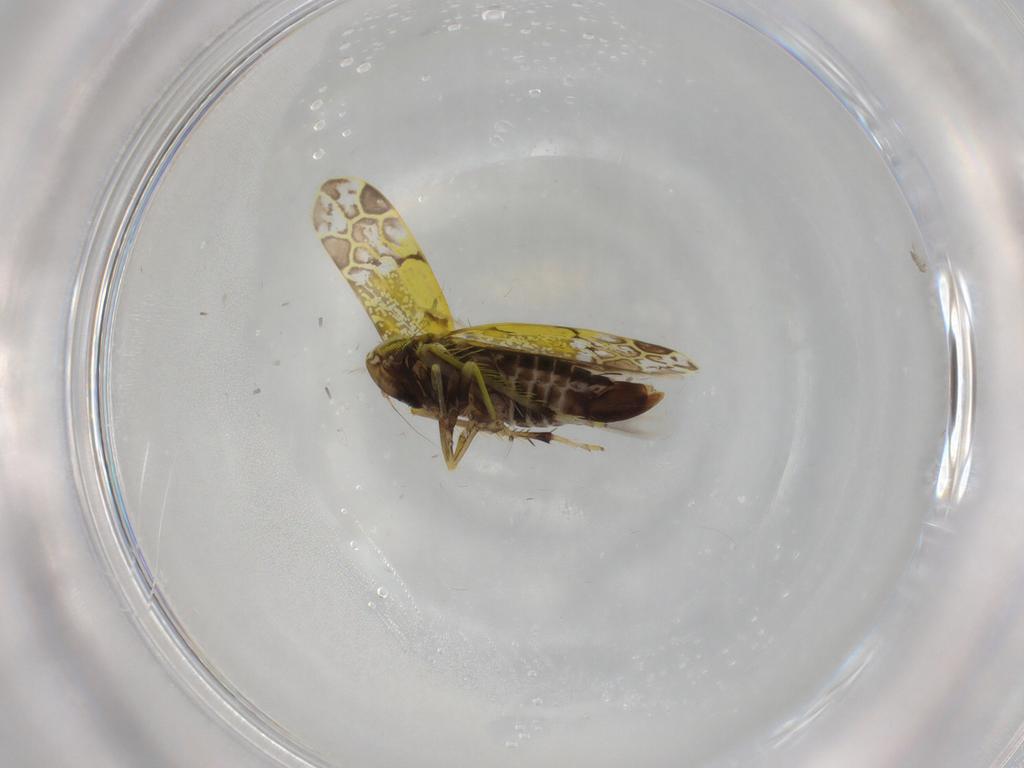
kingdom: Animalia
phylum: Arthropoda
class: Insecta
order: Hemiptera
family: Cicadellidae
